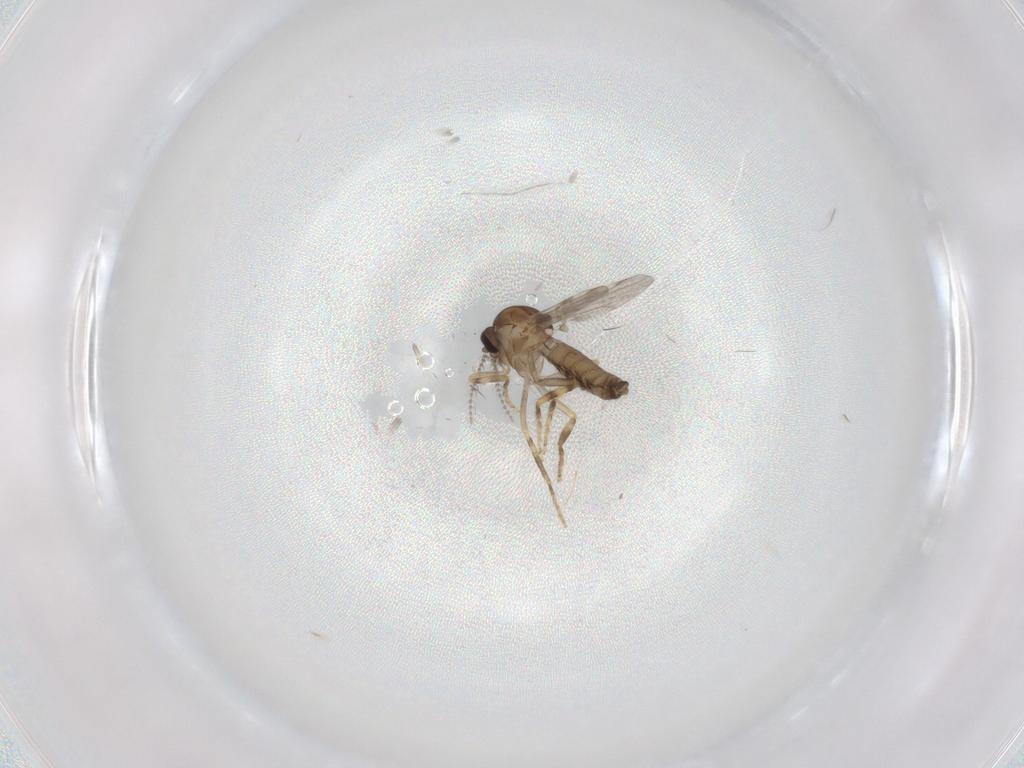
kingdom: Animalia
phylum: Arthropoda
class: Insecta
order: Diptera
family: Ceratopogonidae
